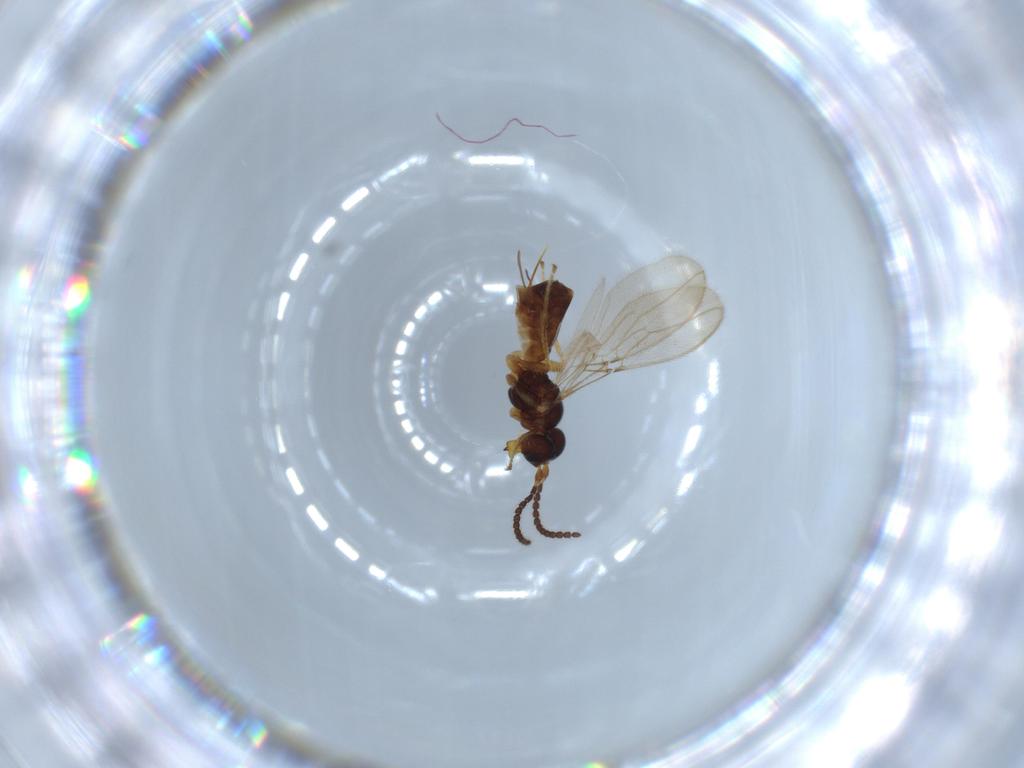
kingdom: Animalia
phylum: Arthropoda
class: Insecta
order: Hymenoptera
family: Braconidae
